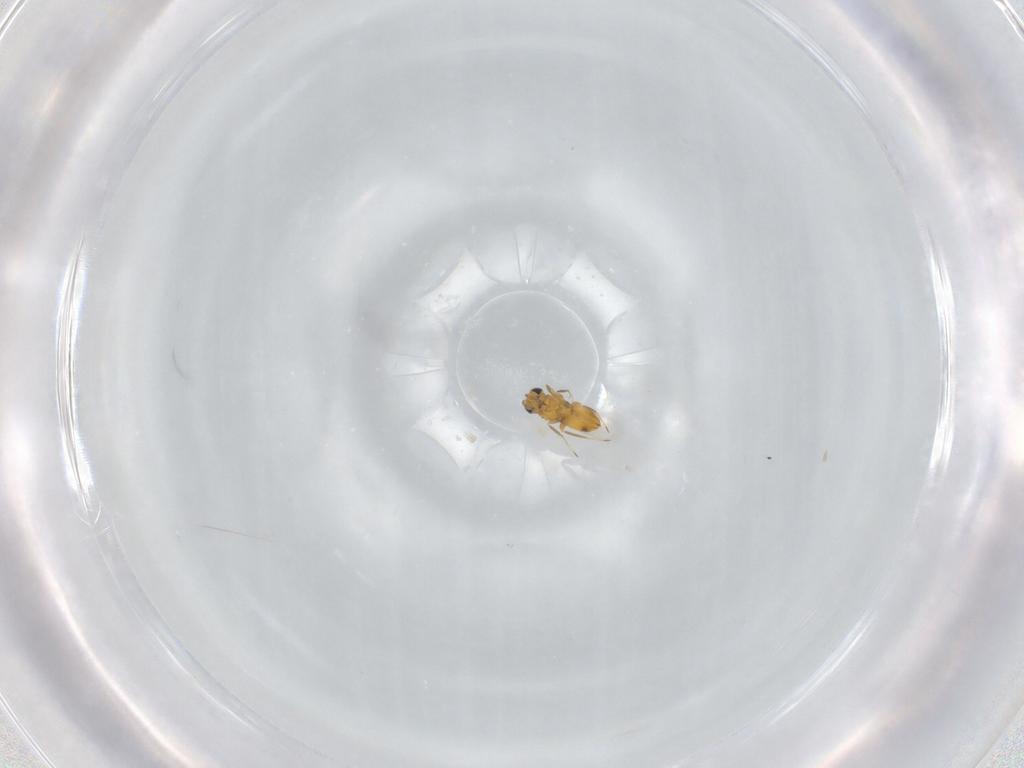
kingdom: Animalia
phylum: Arthropoda
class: Insecta
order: Hymenoptera
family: Aphelinidae
